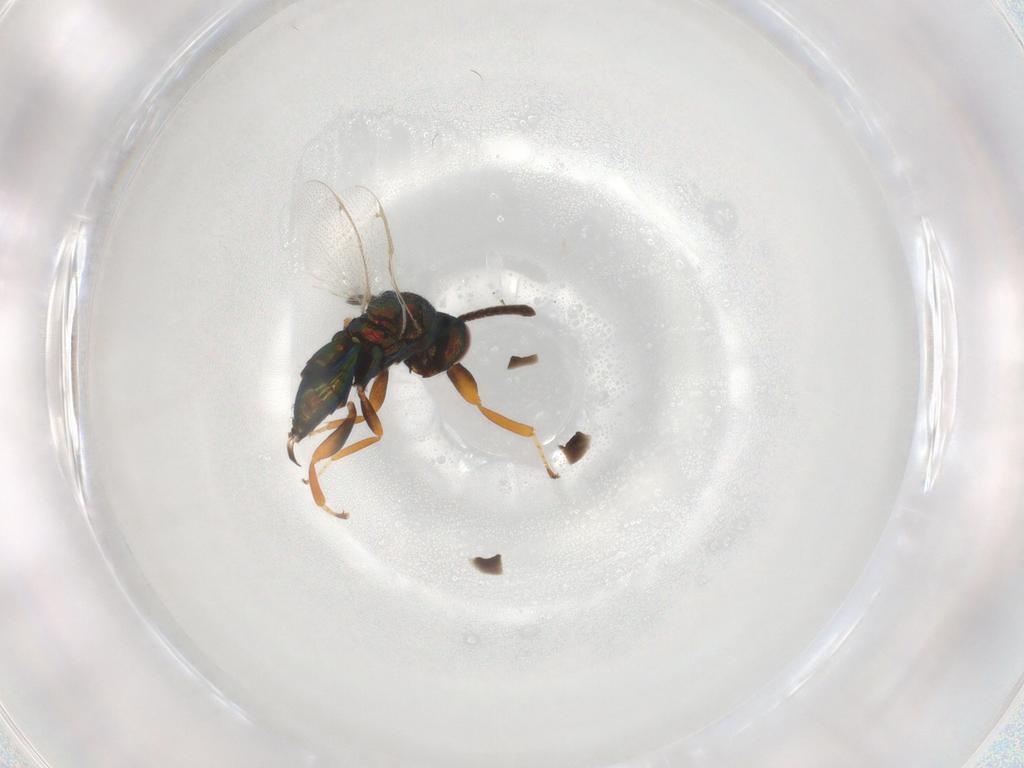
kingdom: Animalia
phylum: Arthropoda
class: Insecta
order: Hymenoptera
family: Torymidae
